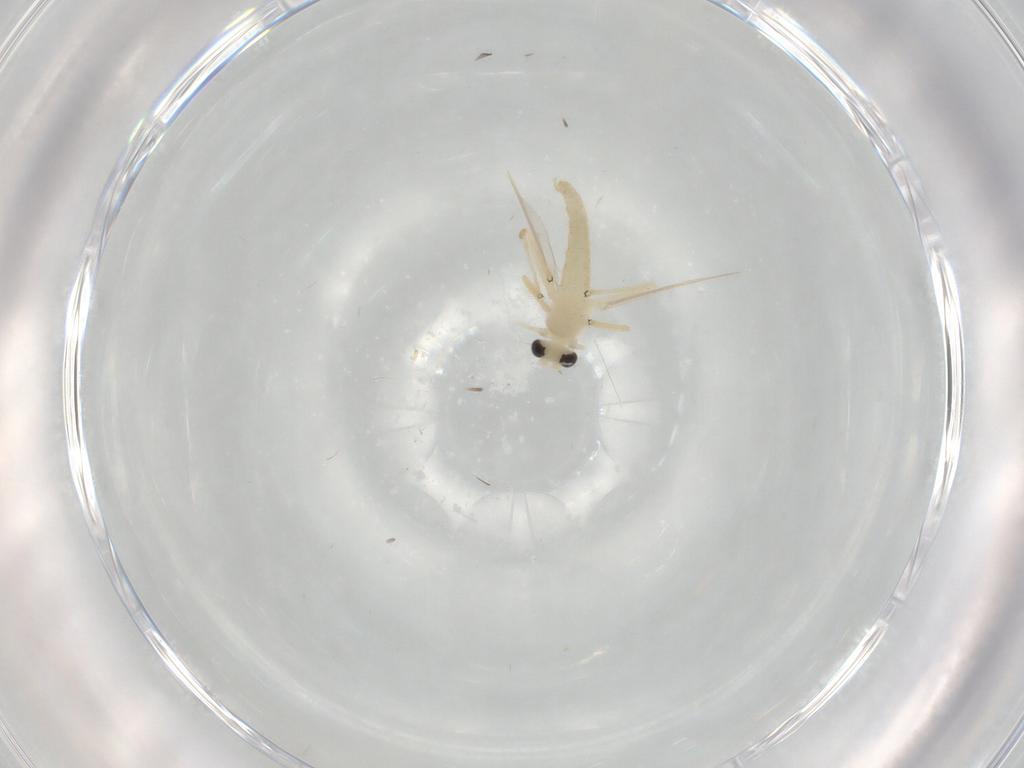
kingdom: Animalia
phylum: Arthropoda
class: Insecta
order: Diptera
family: Chironomidae
